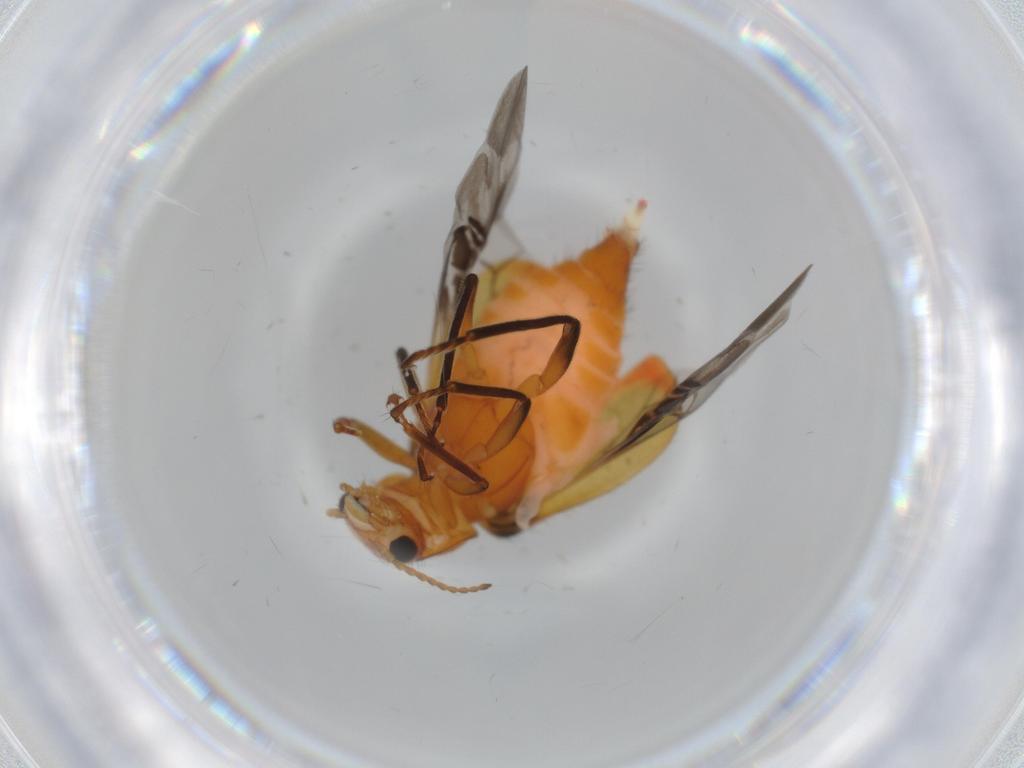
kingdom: Animalia
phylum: Arthropoda
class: Insecta
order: Coleoptera
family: Melyridae
